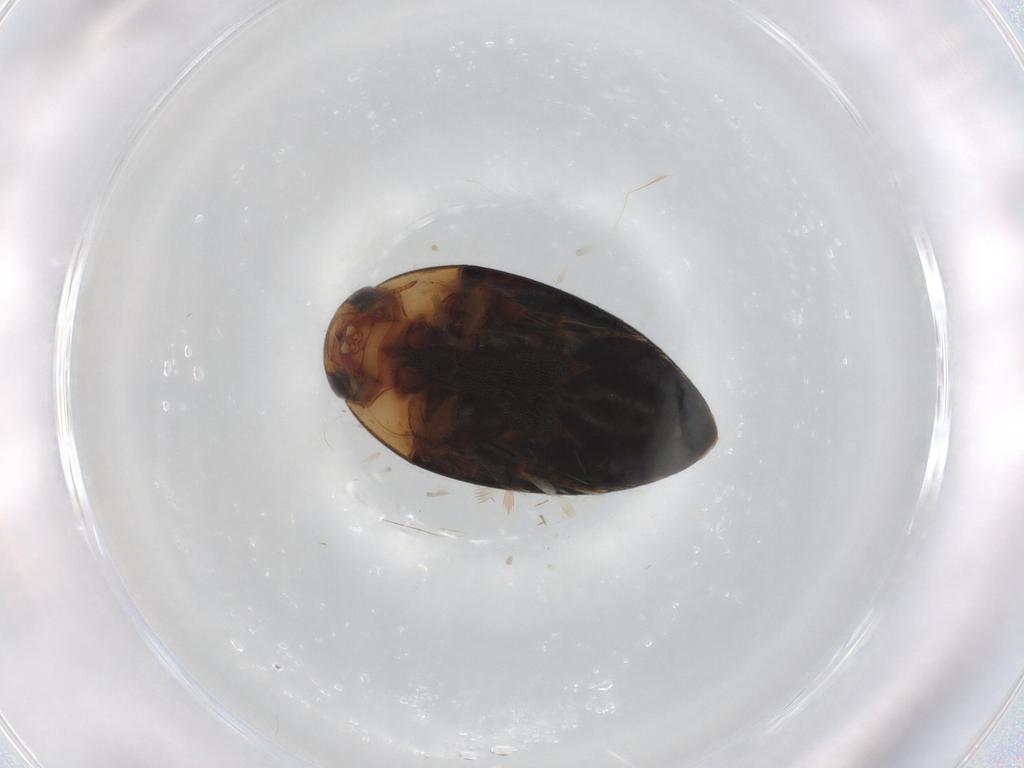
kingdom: Animalia
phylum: Arthropoda
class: Insecta
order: Coleoptera
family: Noteridae
